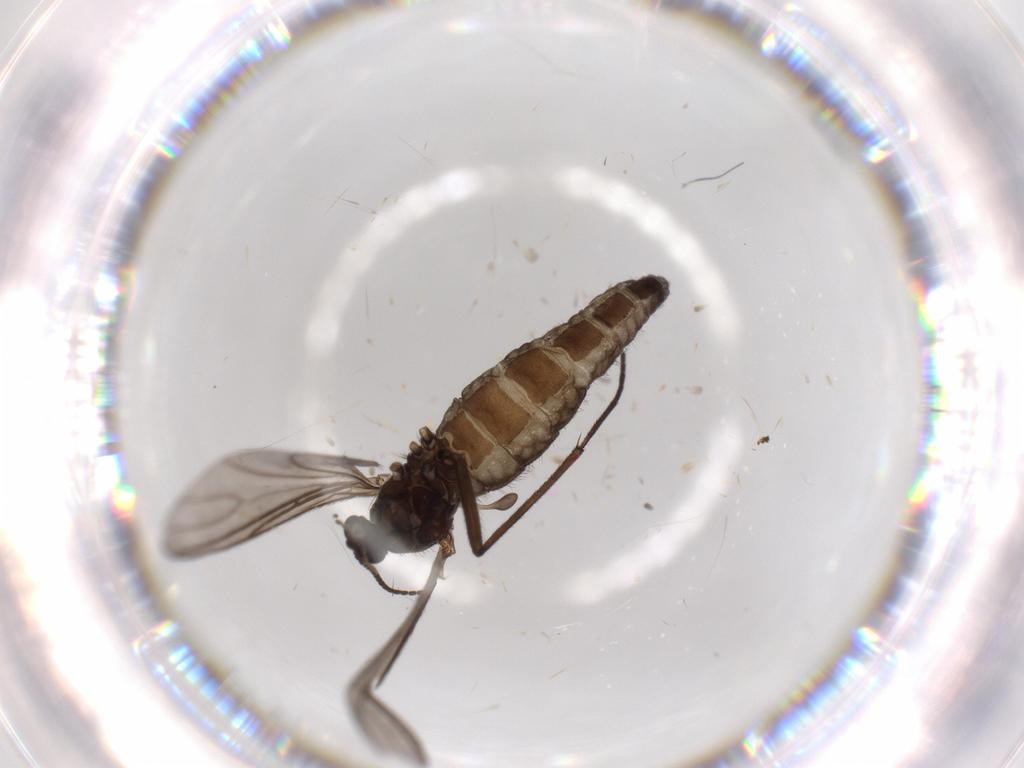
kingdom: Animalia
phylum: Arthropoda
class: Insecta
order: Diptera
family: Sciaridae
